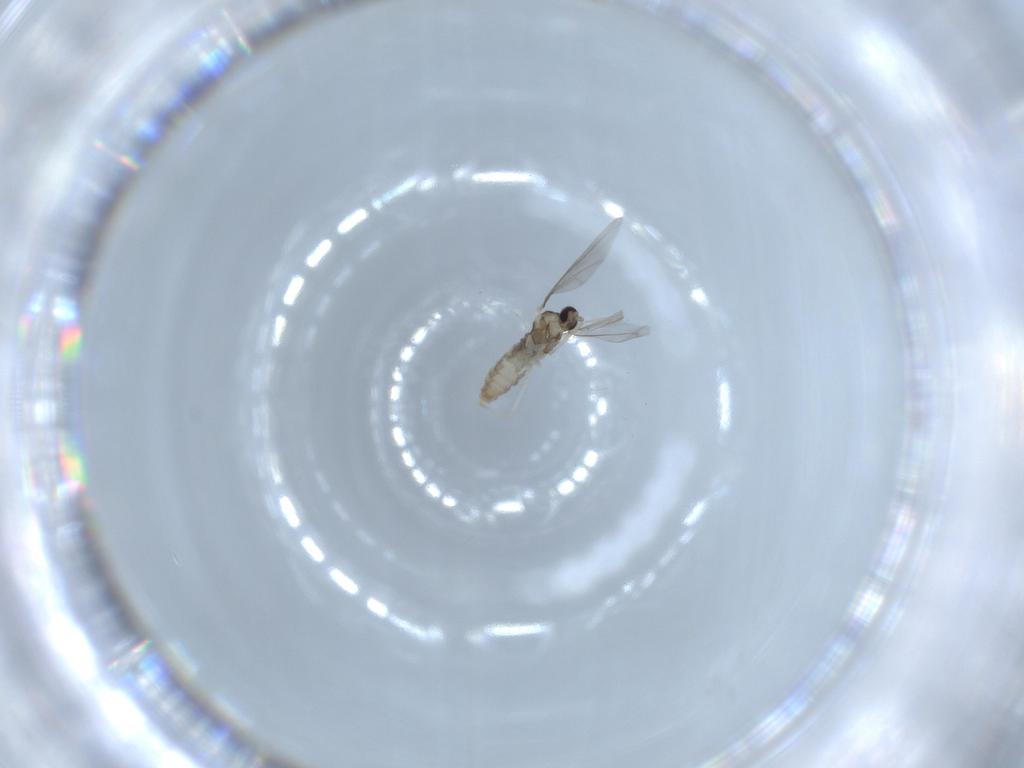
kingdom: Animalia
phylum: Arthropoda
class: Insecta
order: Diptera
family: Cecidomyiidae
